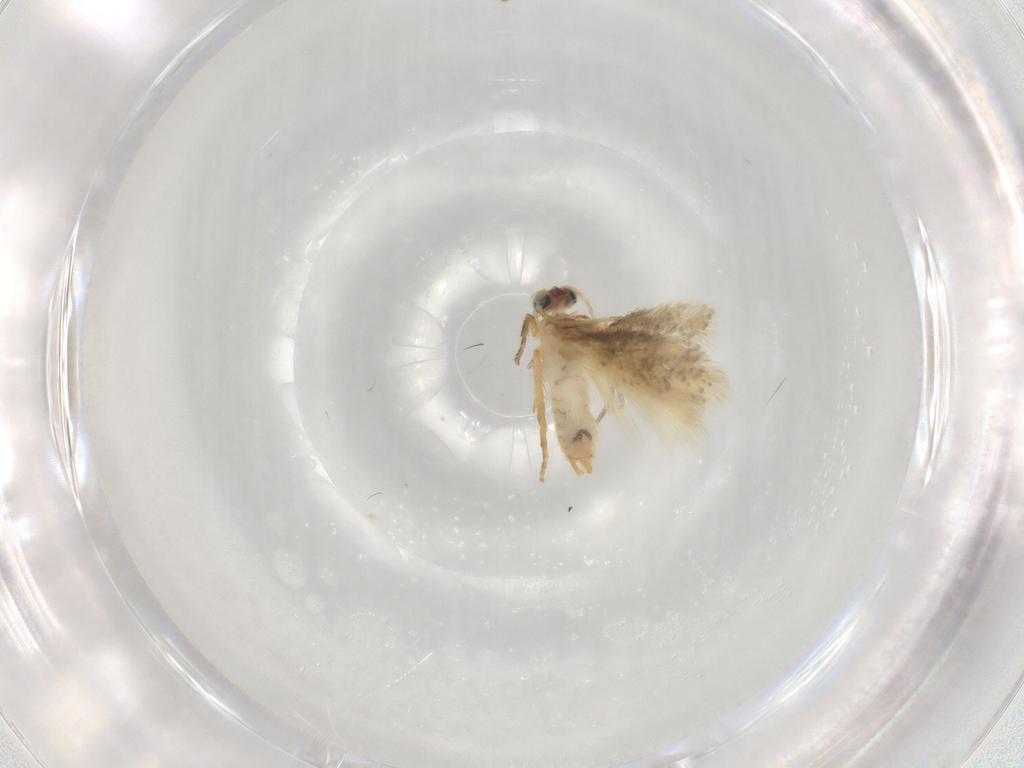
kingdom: Animalia
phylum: Arthropoda
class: Insecta
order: Lepidoptera
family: Nepticulidae
